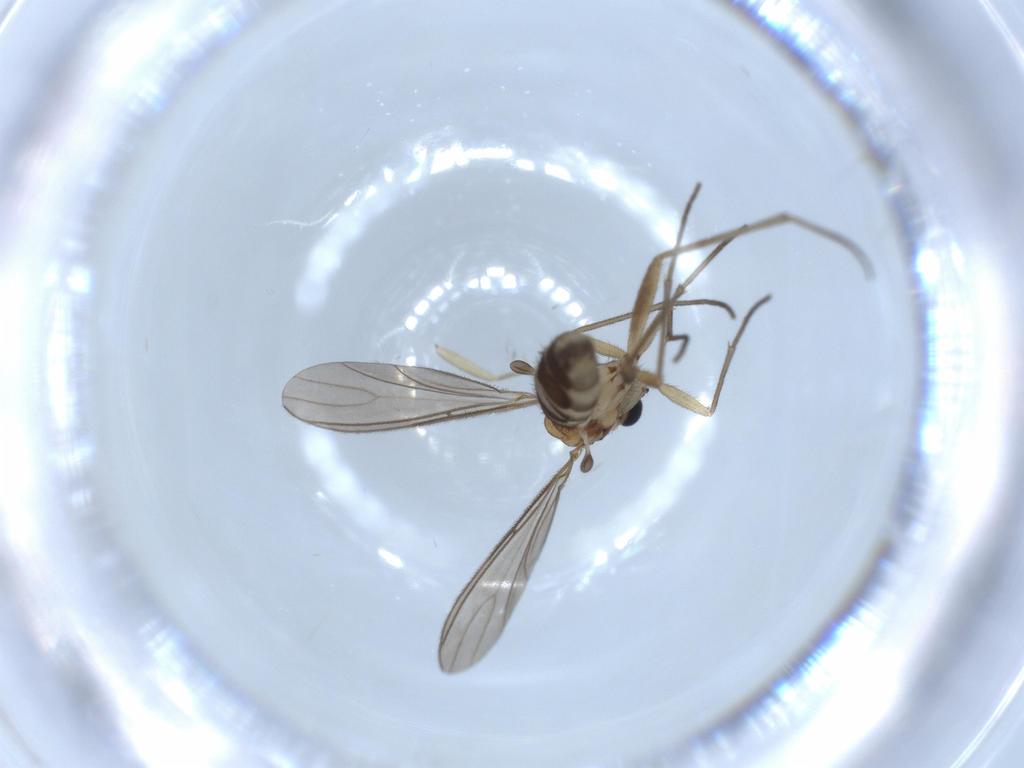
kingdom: Animalia
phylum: Arthropoda
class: Insecta
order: Diptera
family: Sciaridae
